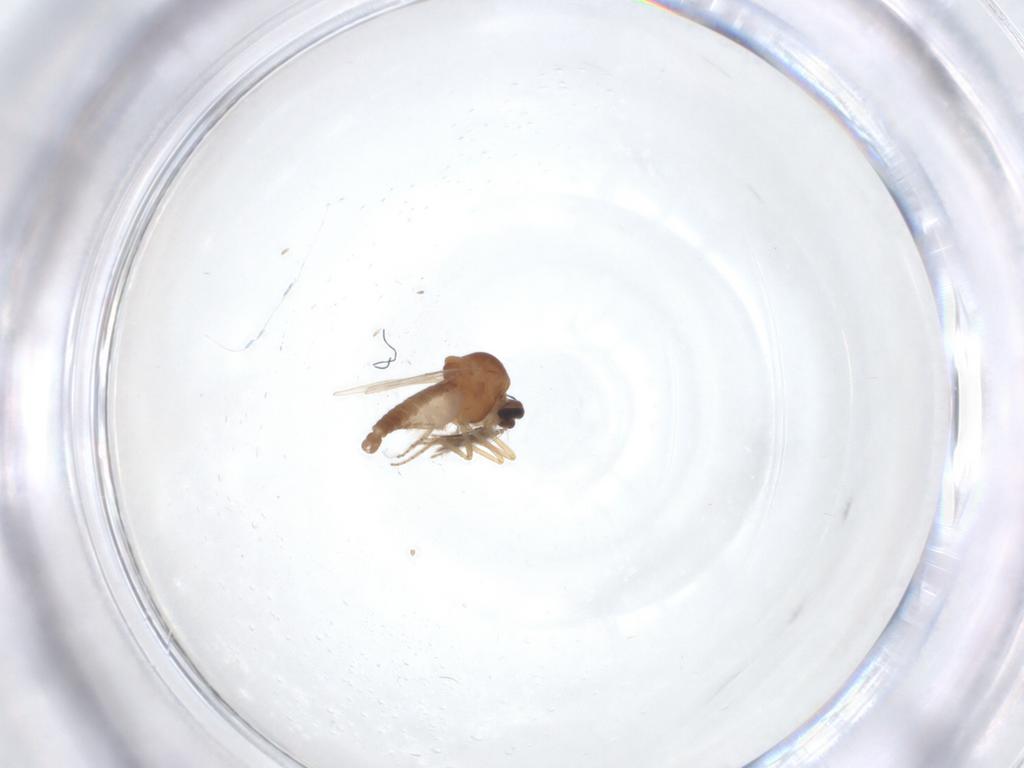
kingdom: Animalia
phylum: Arthropoda
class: Insecta
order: Diptera
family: Ceratopogonidae
